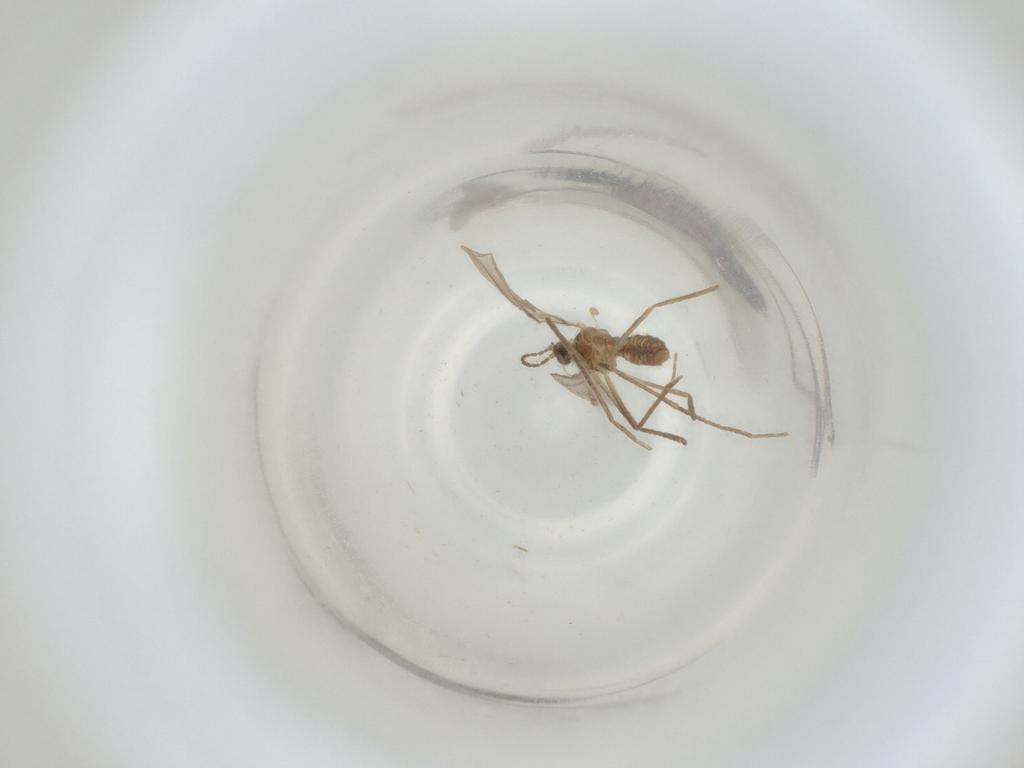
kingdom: Animalia
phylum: Arthropoda
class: Insecta
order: Diptera
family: Cecidomyiidae
